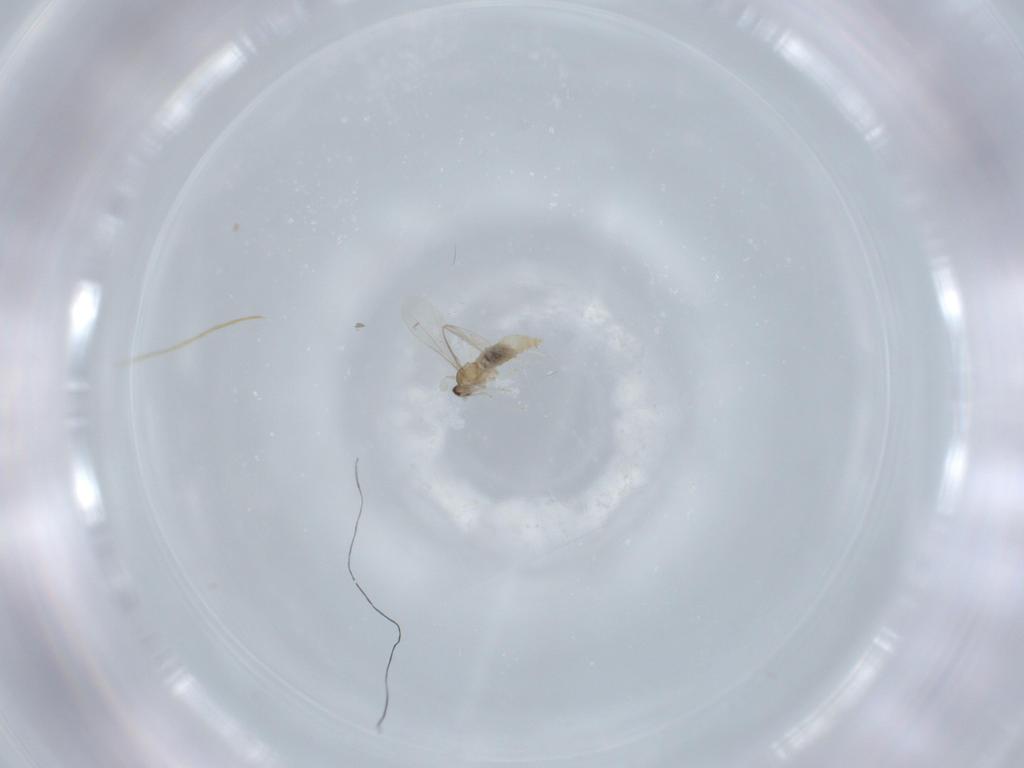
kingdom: Animalia
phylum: Arthropoda
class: Insecta
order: Diptera
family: Cecidomyiidae
